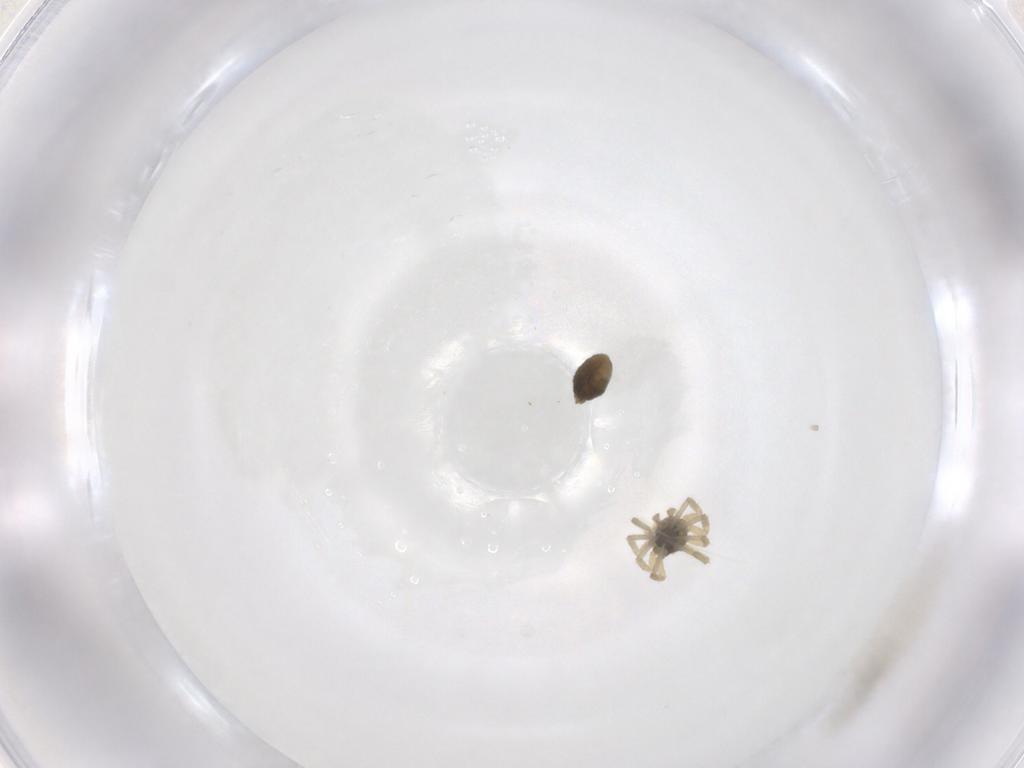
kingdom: Animalia
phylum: Arthropoda
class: Arachnida
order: Araneae
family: Linyphiidae
